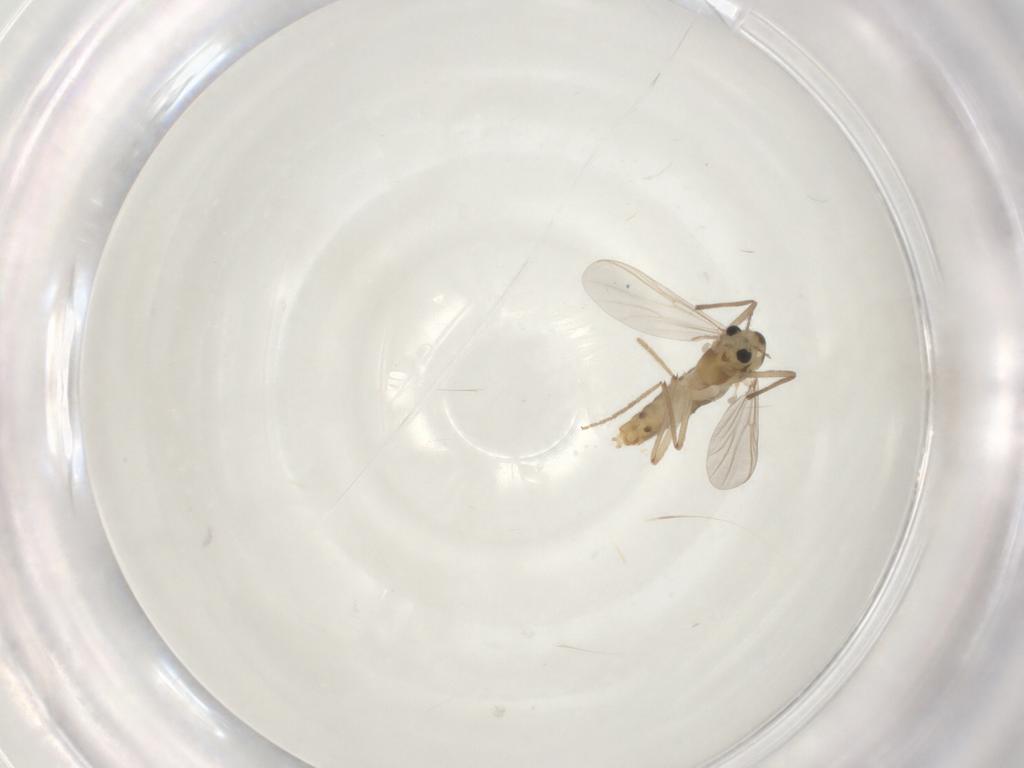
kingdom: Animalia
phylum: Arthropoda
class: Insecta
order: Diptera
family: Chironomidae
